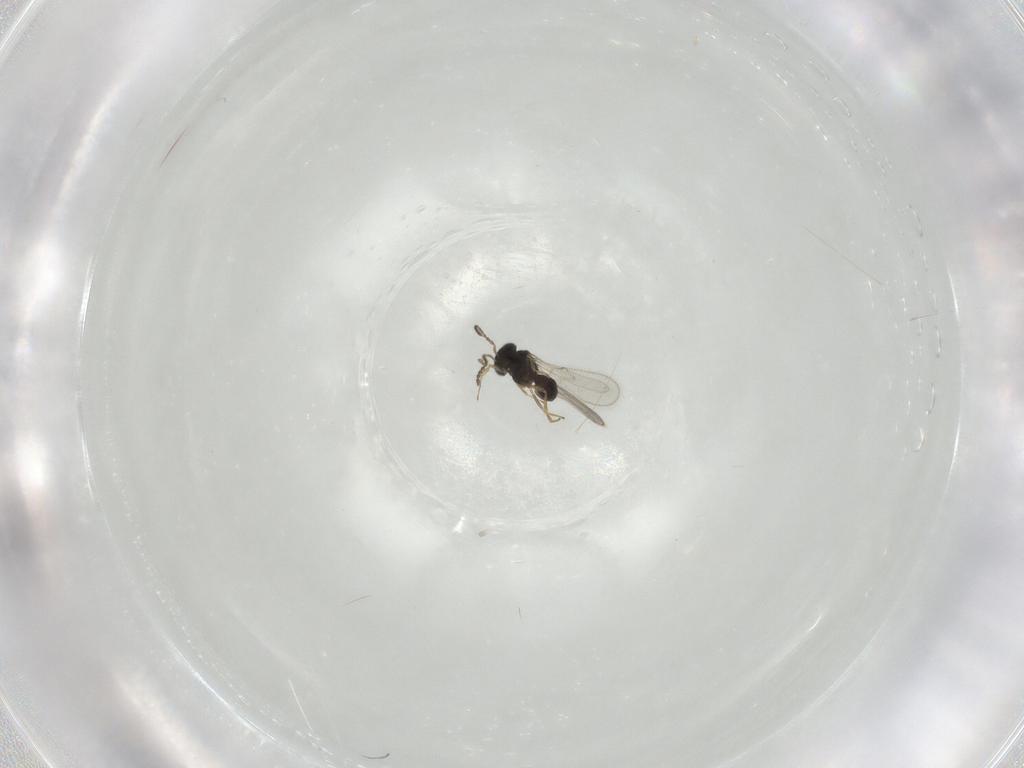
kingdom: Animalia
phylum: Arthropoda
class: Insecta
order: Hymenoptera
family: Scelionidae
